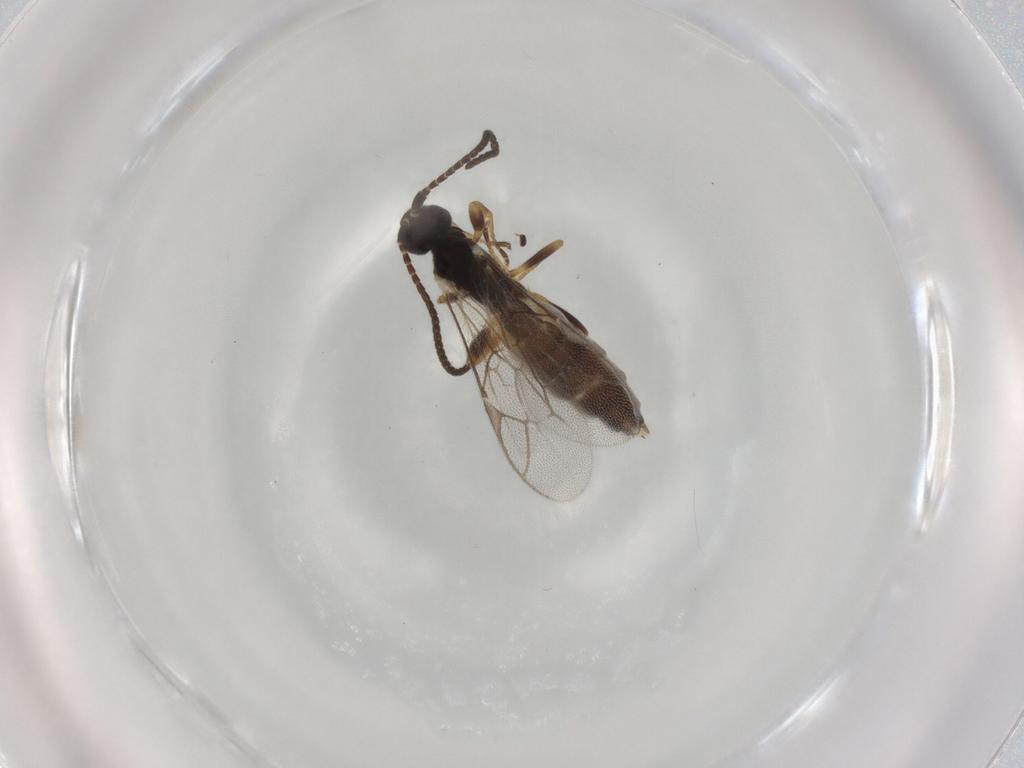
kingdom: Animalia
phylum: Arthropoda
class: Insecta
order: Hymenoptera
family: Ichneumonidae
